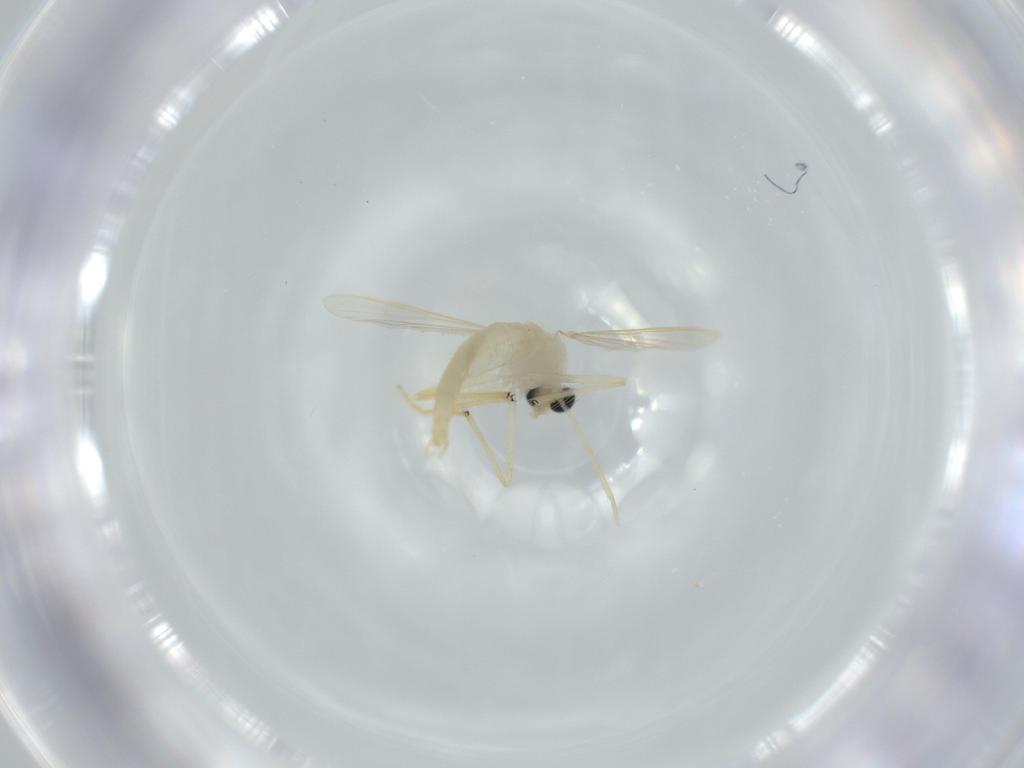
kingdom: Animalia
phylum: Arthropoda
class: Insecta
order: Diptera
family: Chironomidae
